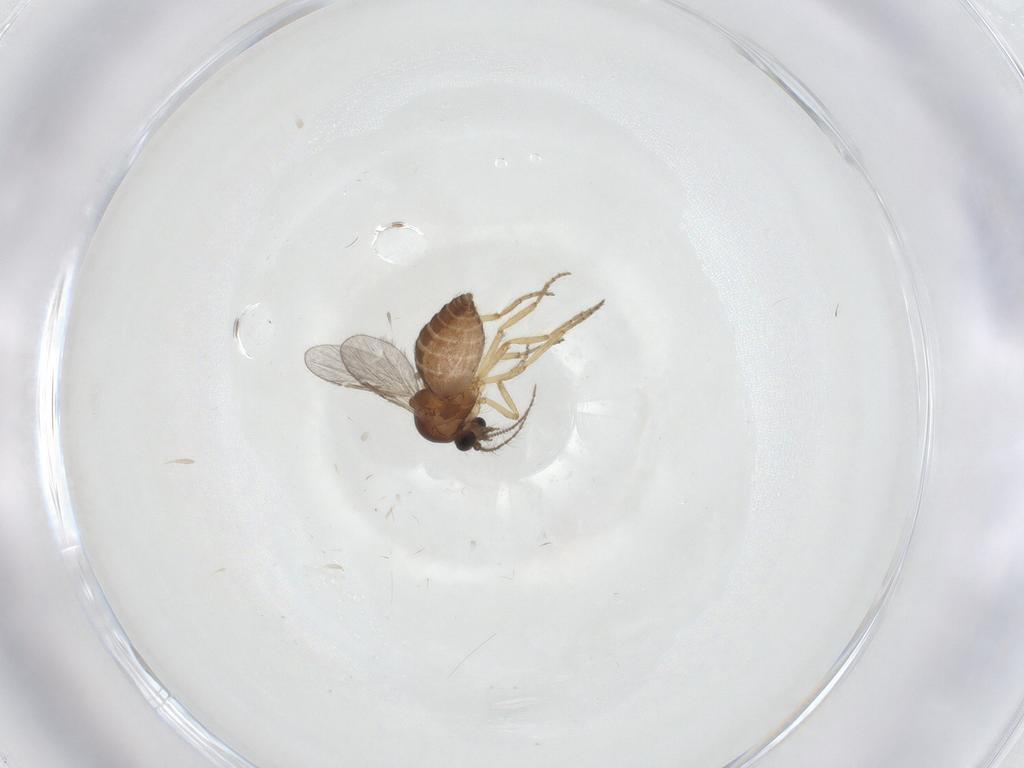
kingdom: Animalia
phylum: Arthropoda
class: Insecta
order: Diptera
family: Ceratopogonidae
